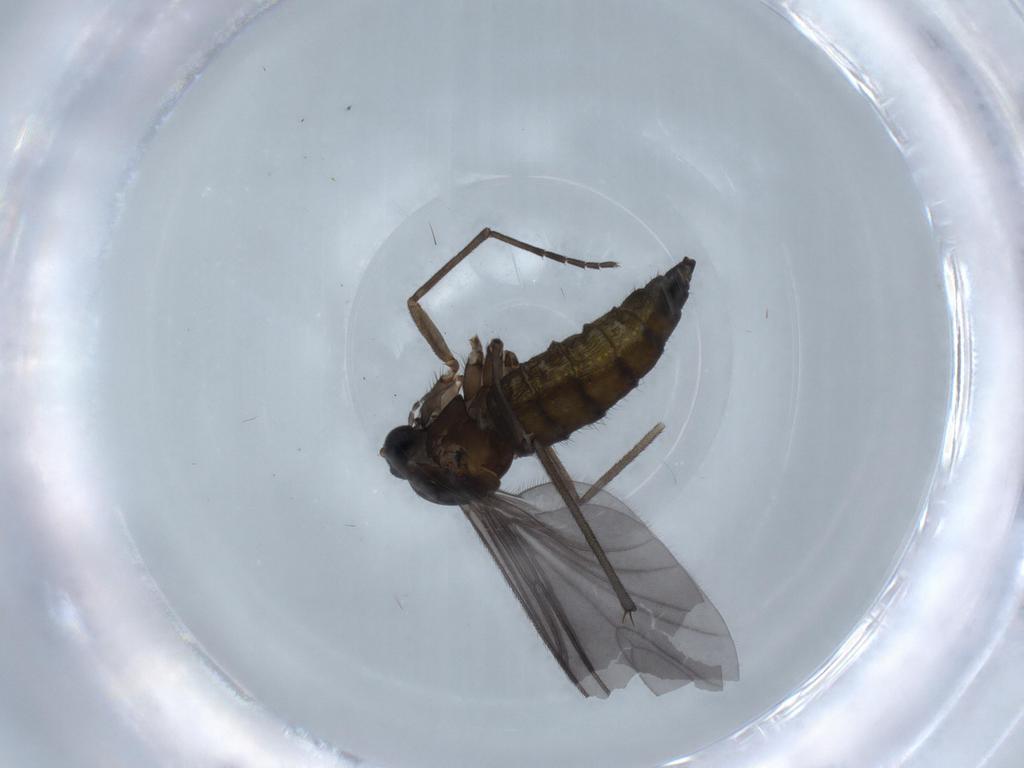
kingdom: Animalia
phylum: Arthropoda
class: Insecta
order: Diptera
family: Sciaridae
